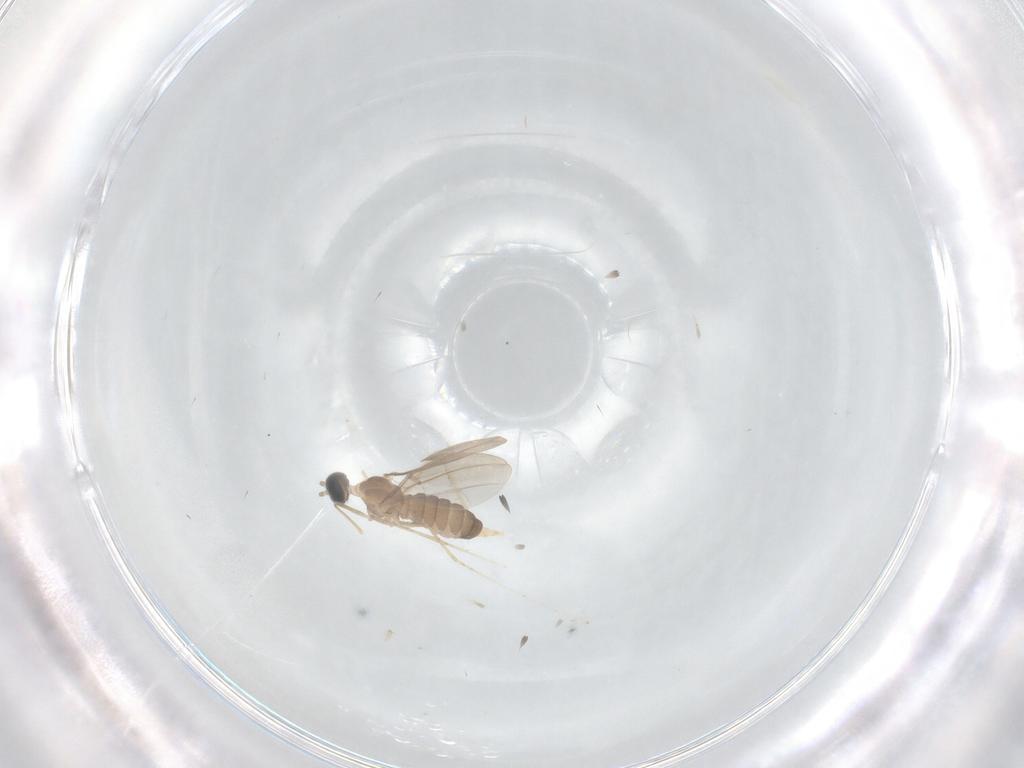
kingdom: Animalia
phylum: Arthropoda
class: Insecta
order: Diptera
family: Cecidomyiidae
